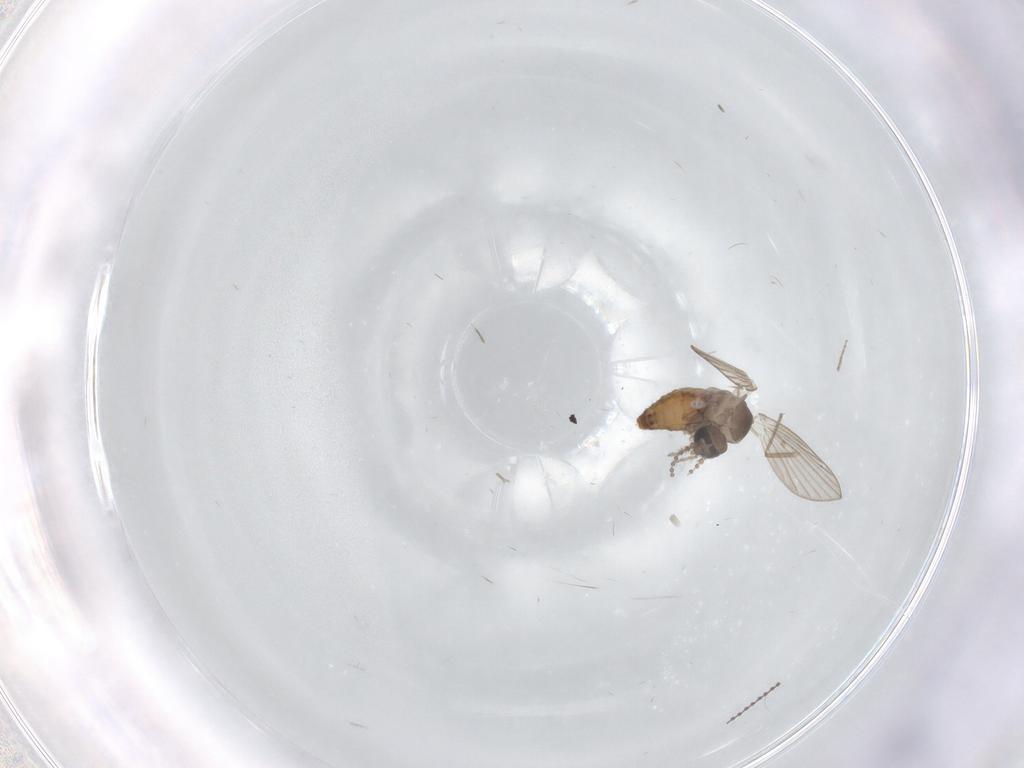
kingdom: Animalia
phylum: Arthropoda
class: Insecta
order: Diptera
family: Psychodidae
